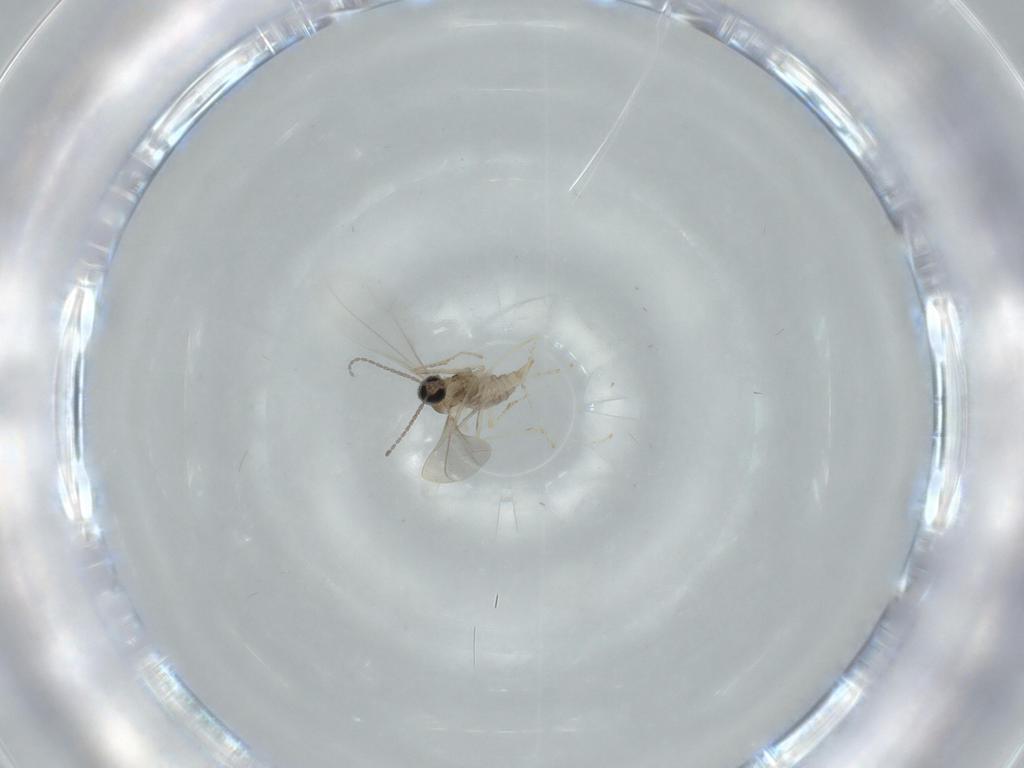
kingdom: Animalia
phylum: Arthropoda
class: Insecta
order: Diptera
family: Cecidomyiidae
